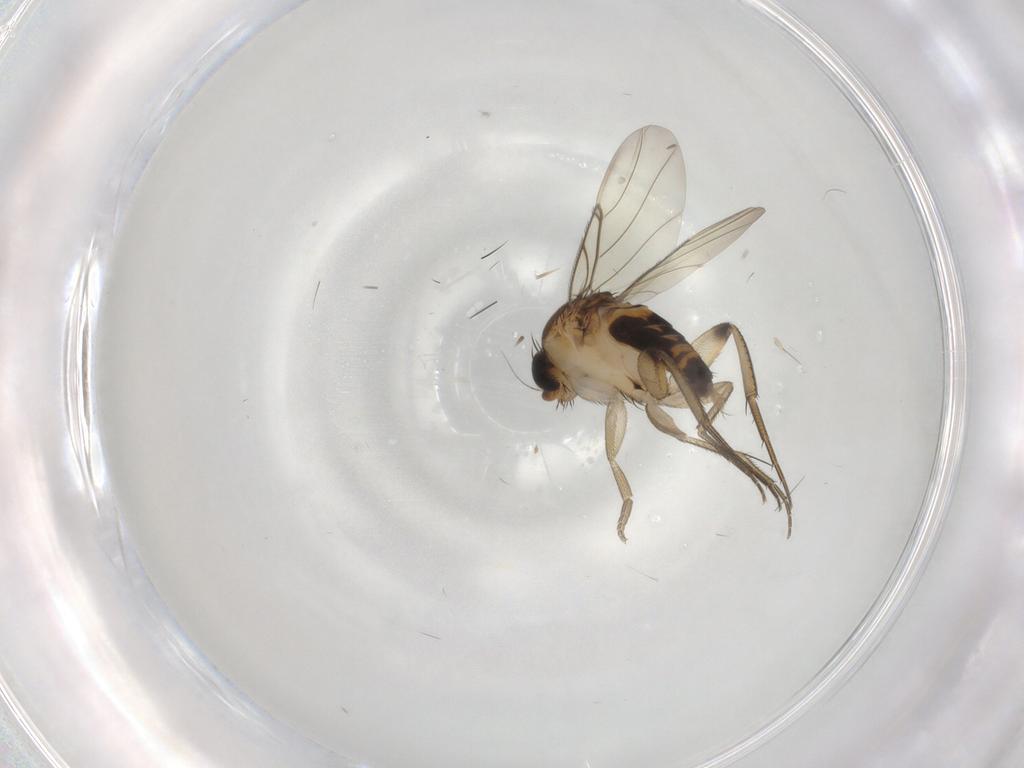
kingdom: Animalia
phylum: Arthropoda
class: Insecta
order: Diptera
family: Phoridae
